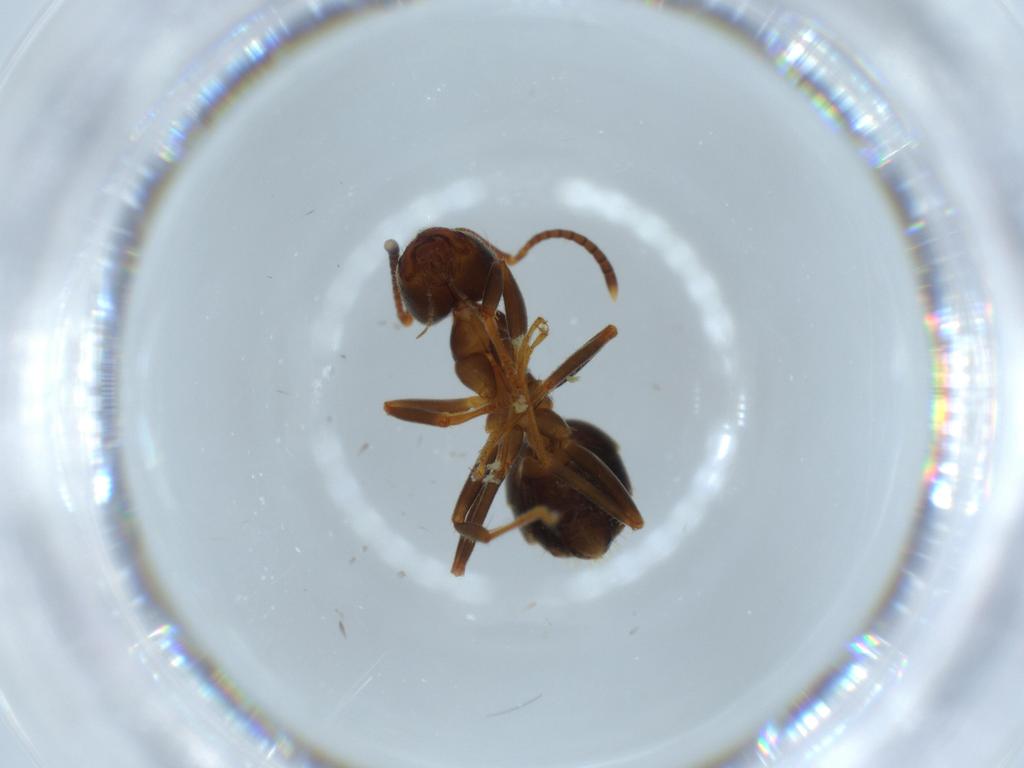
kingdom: Animalia
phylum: Arthropoda
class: Insecta
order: Hymenoptera
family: Formicidae
